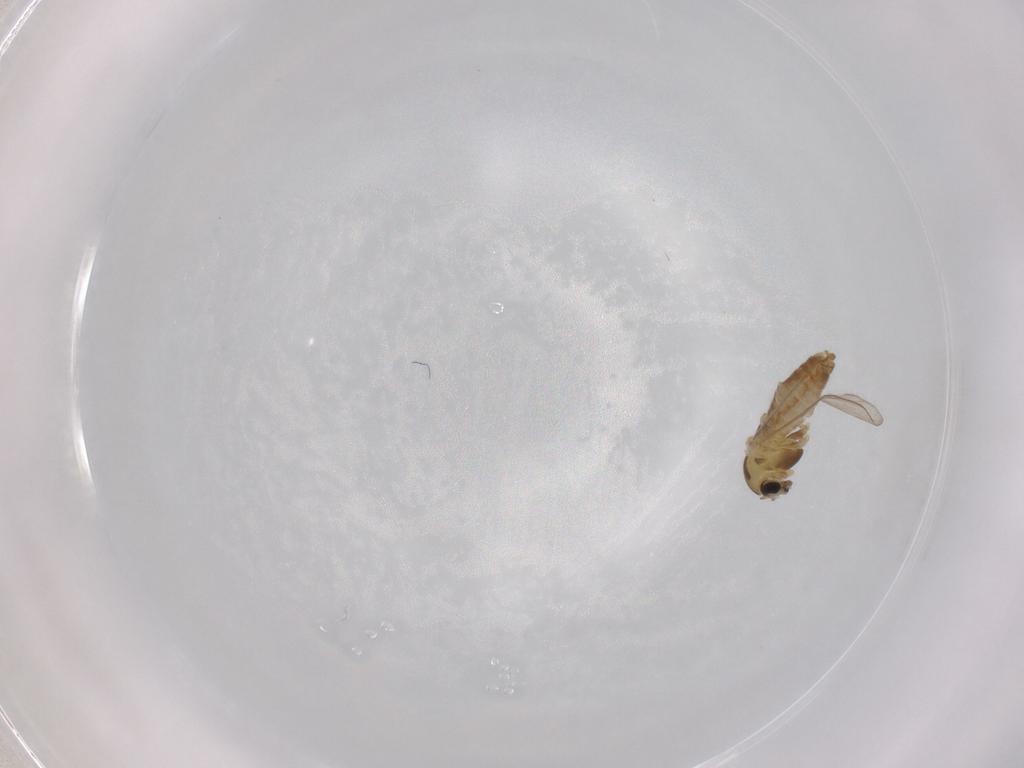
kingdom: Animalia
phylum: Arthropoda
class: Insecta
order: Diptera
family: Chironomidae
